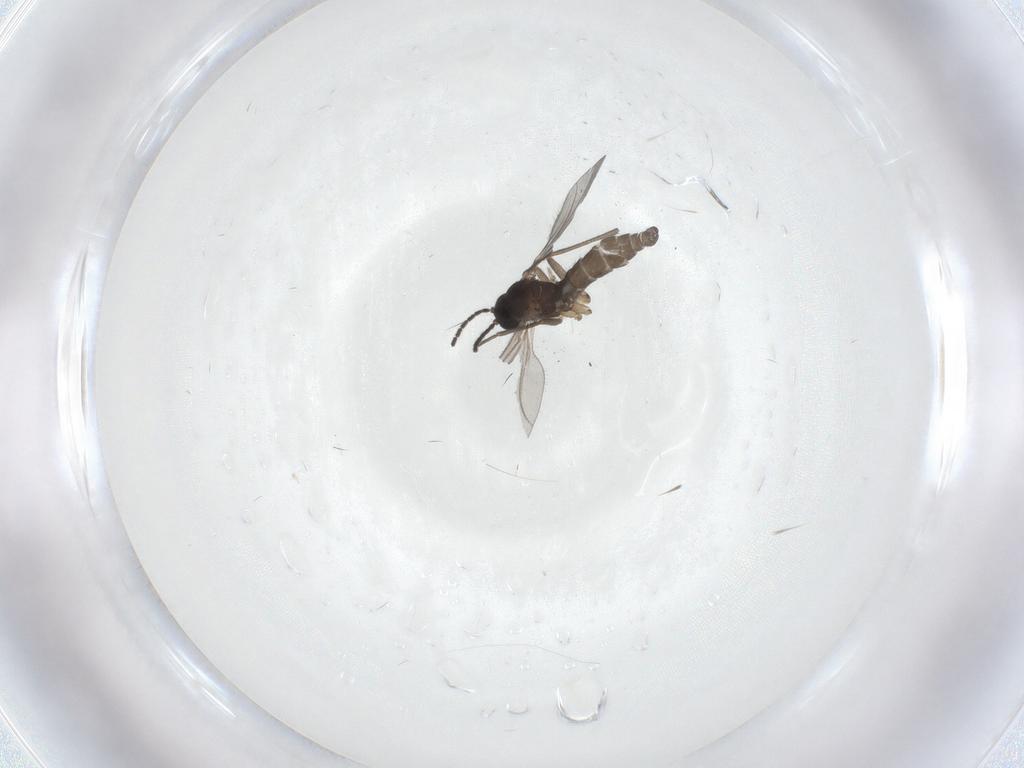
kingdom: Animalia
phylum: Arthropoda
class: Insecta
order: Diptera
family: Sciaridae
